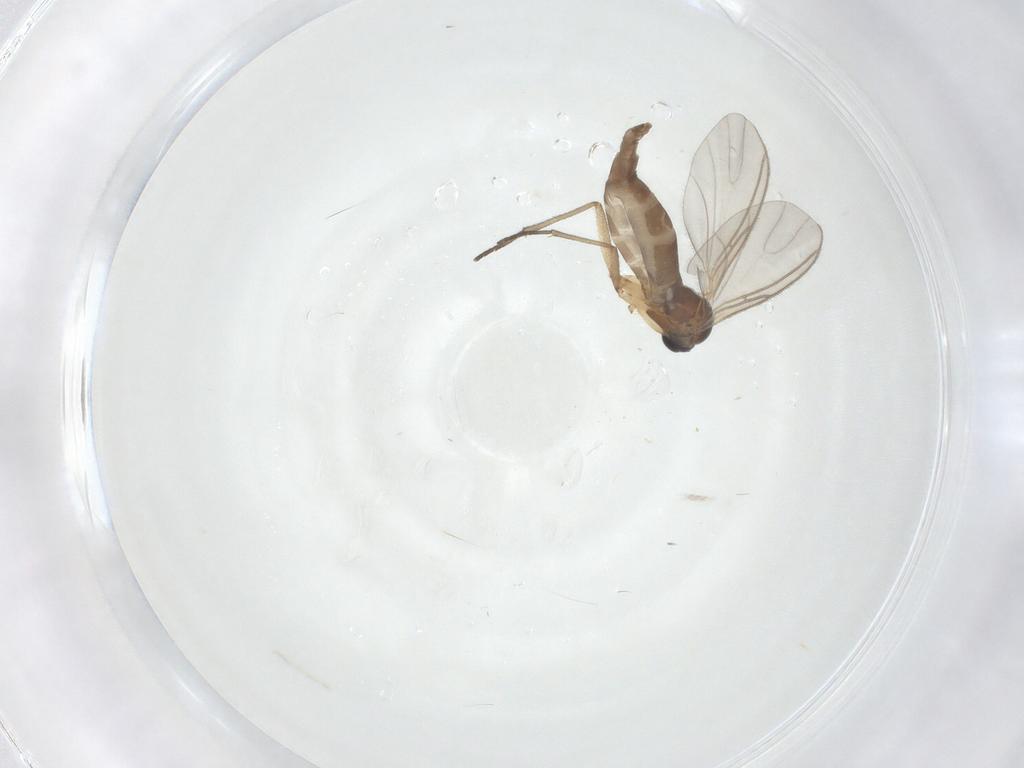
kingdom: Animalia
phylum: Arthropoda
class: Insecta
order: Diptera
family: Sciaridae
